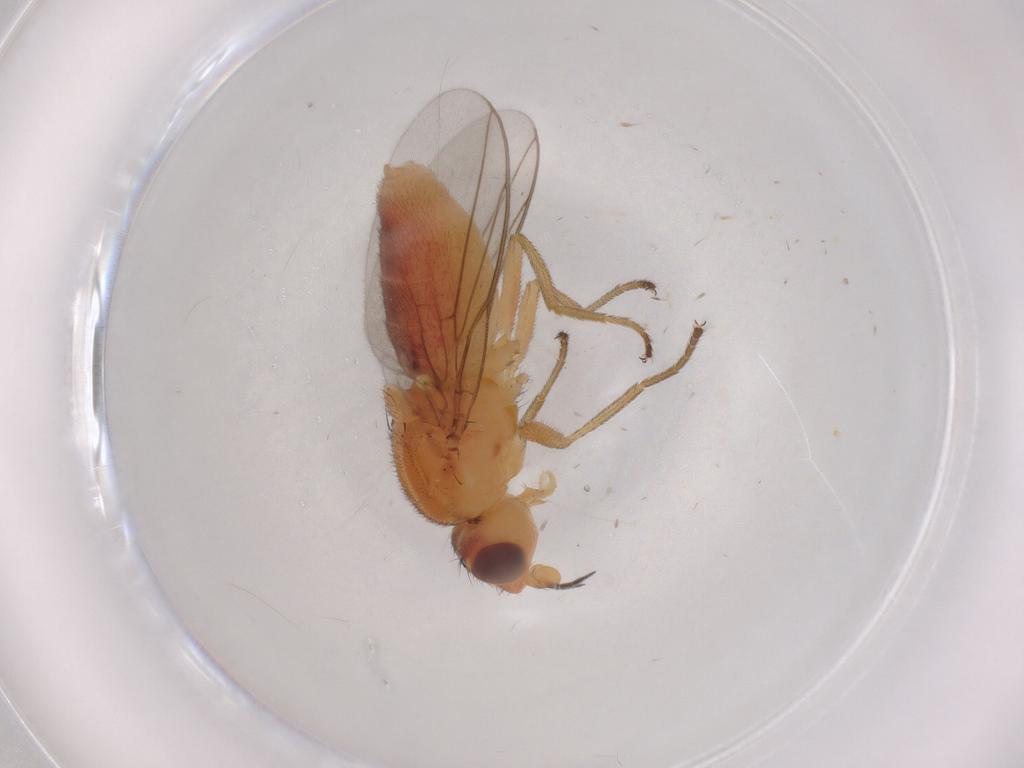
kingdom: Animalia
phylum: Arthropoda
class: Insecta
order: Diptera
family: Chloropidae
